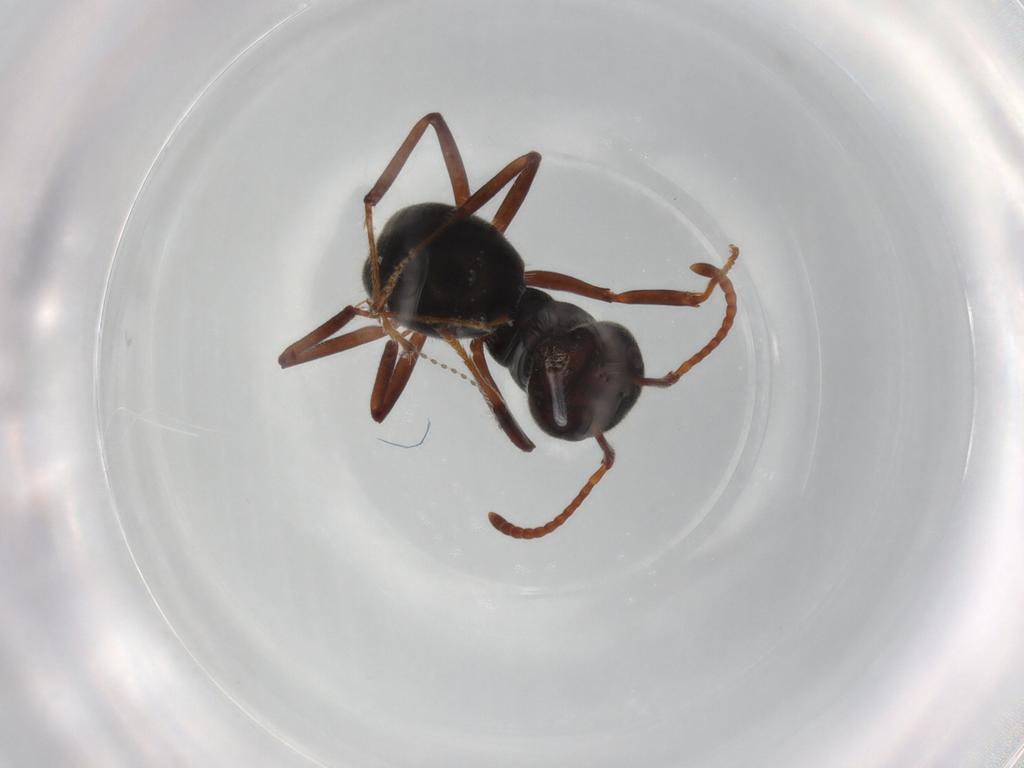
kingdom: Animalia
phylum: Arthropoda
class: Insecta
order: Hymenoptera
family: Formicidae
